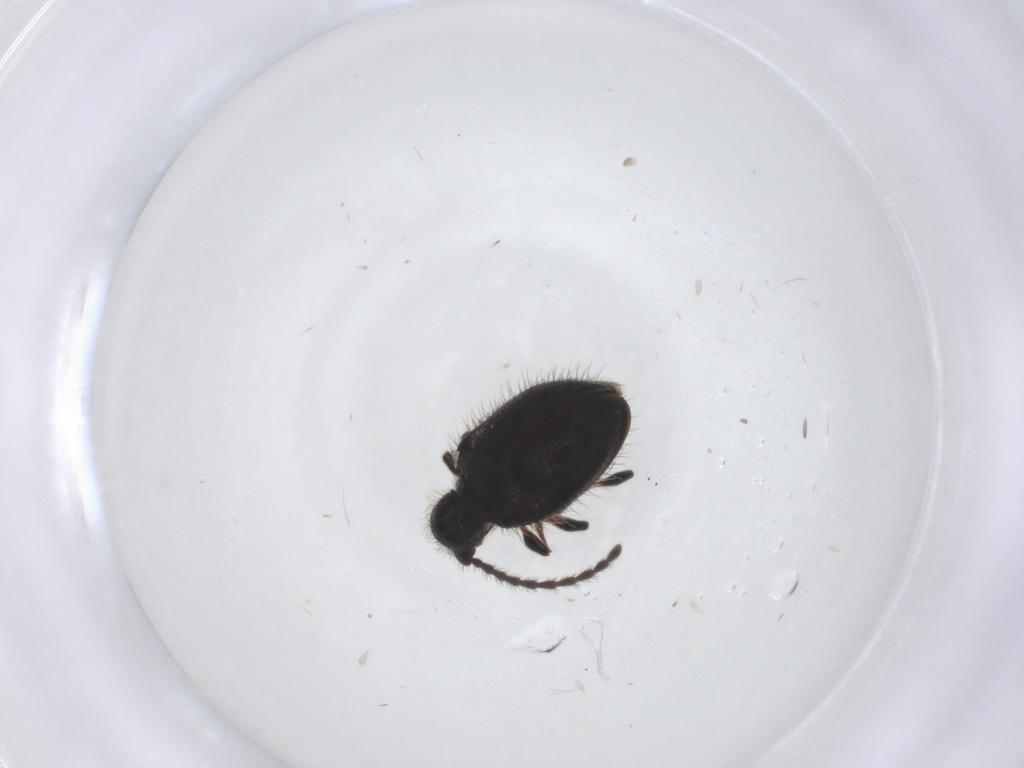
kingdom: Animalia
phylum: Arthropoda
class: Insecta
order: Coleoptera
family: Ptinidae
